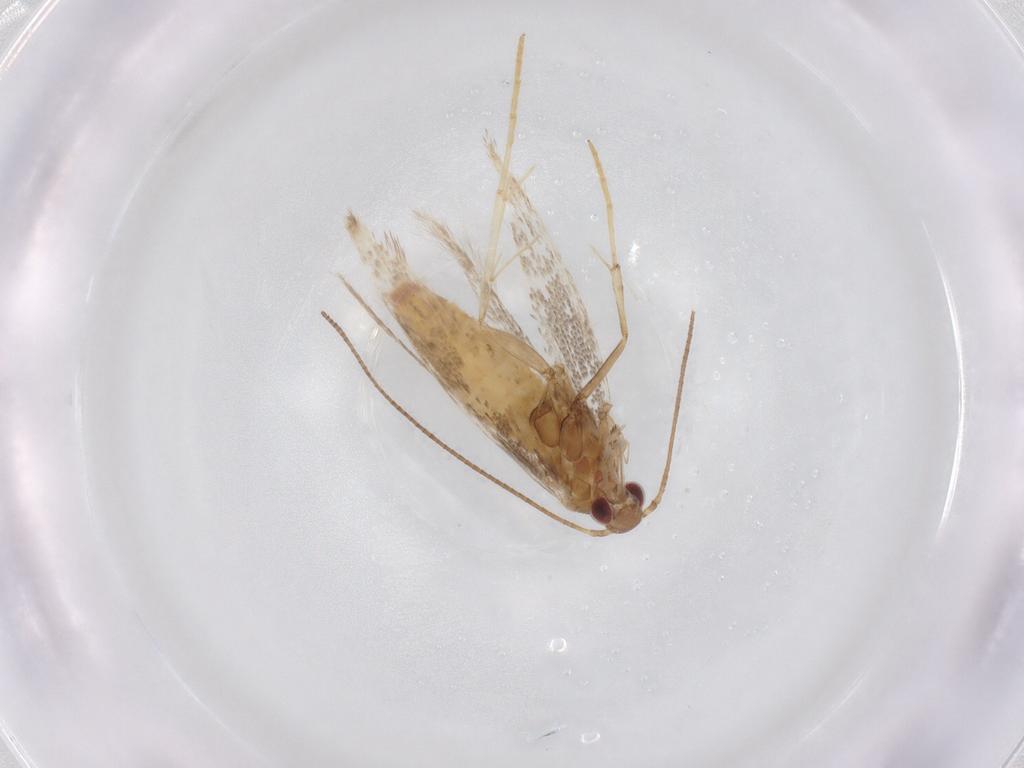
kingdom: Animalia
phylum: Arthropoda
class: Insecta
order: Lepidoptera
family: Gracillariidae
